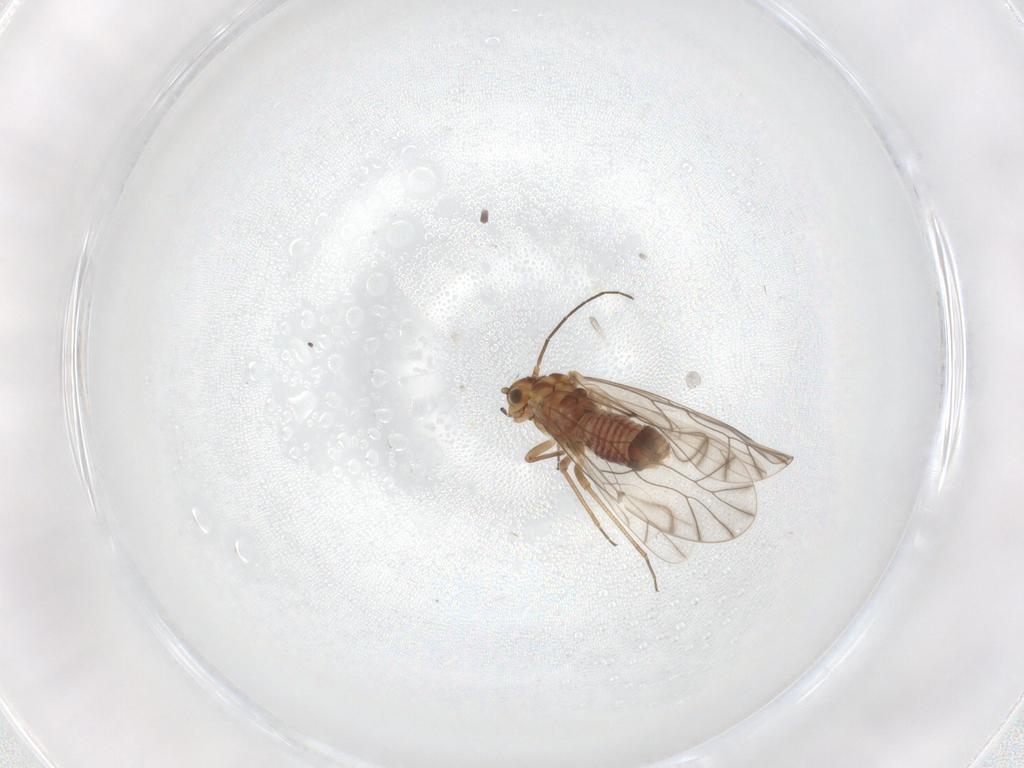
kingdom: Animalia
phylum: Arthropoda
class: Insecta
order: Psocodea
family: Lachesillidae
